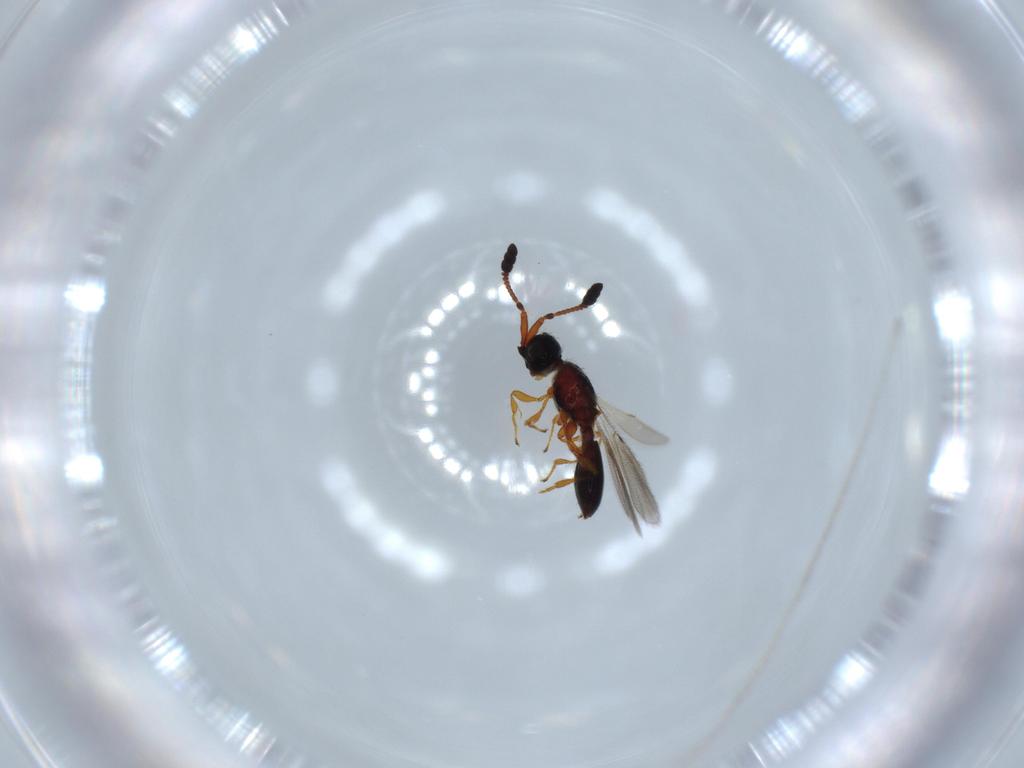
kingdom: Animalia
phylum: Arthropoda
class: Insecta
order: Hymenoptera
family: Diapriidae
